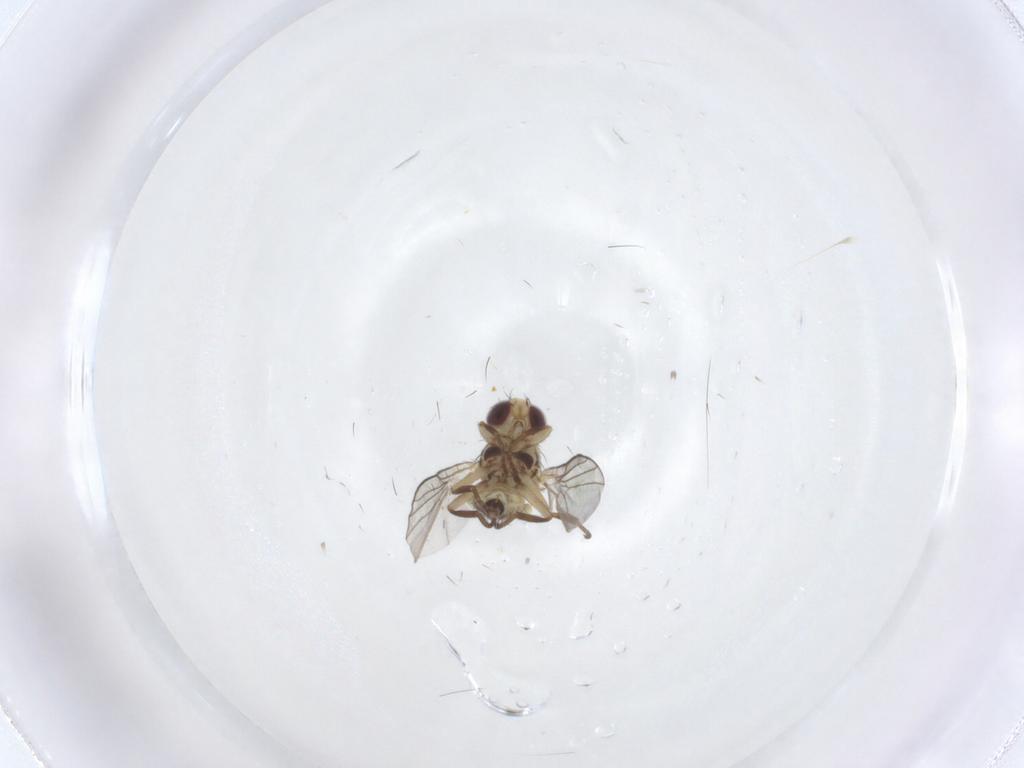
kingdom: Animalia
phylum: Arthropoda
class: Insecta
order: Diptera
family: Agromyzidae
